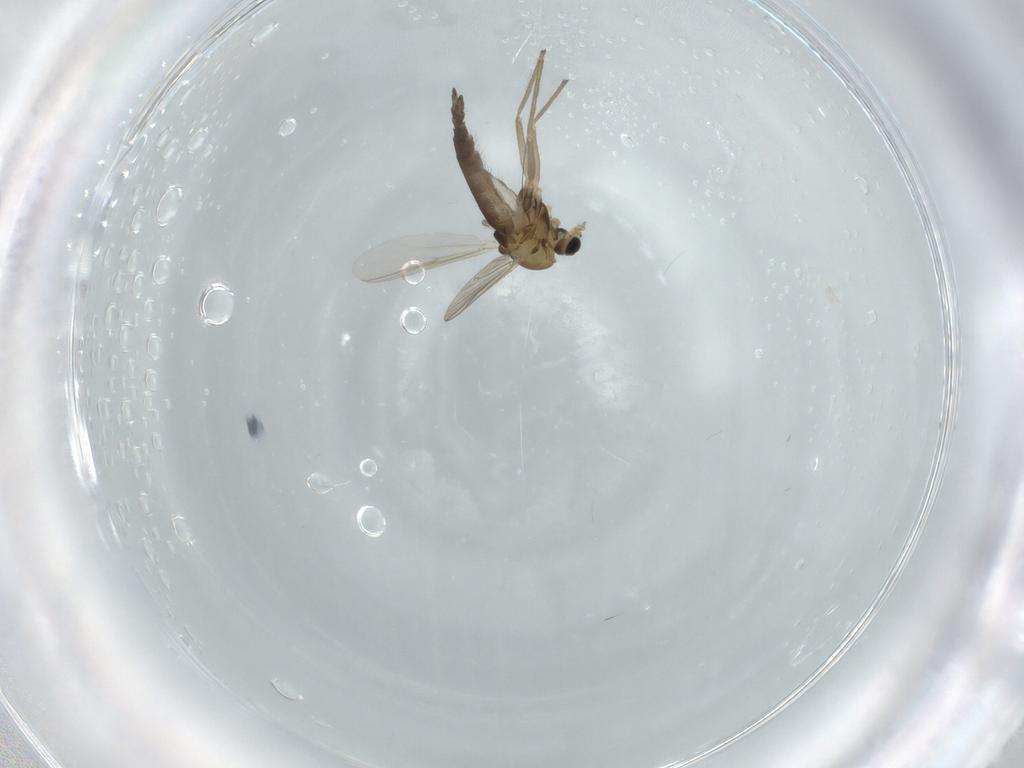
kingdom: Animalia
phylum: Arthropoda
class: Insecta
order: Diptera
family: Chironomidae
